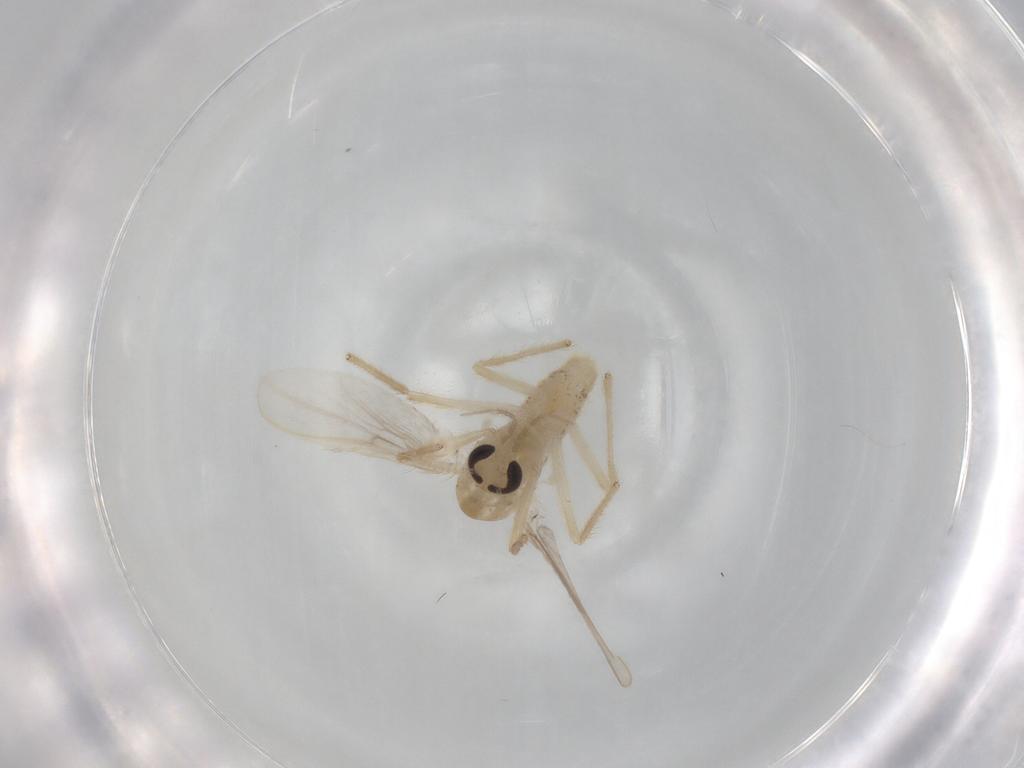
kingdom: Animalia
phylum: Arthropoda
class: Insecta
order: Diptera
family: Chironomidae
